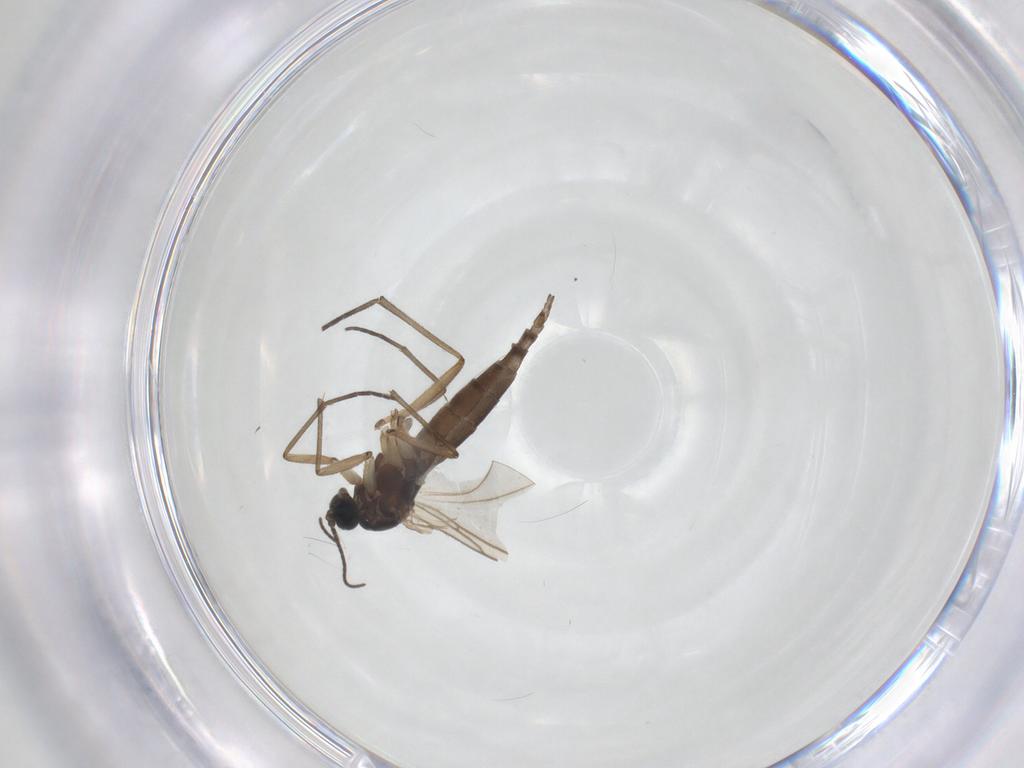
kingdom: Animalia
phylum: Arthropoda
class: Insecta
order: Diptera
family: Sciaridae
